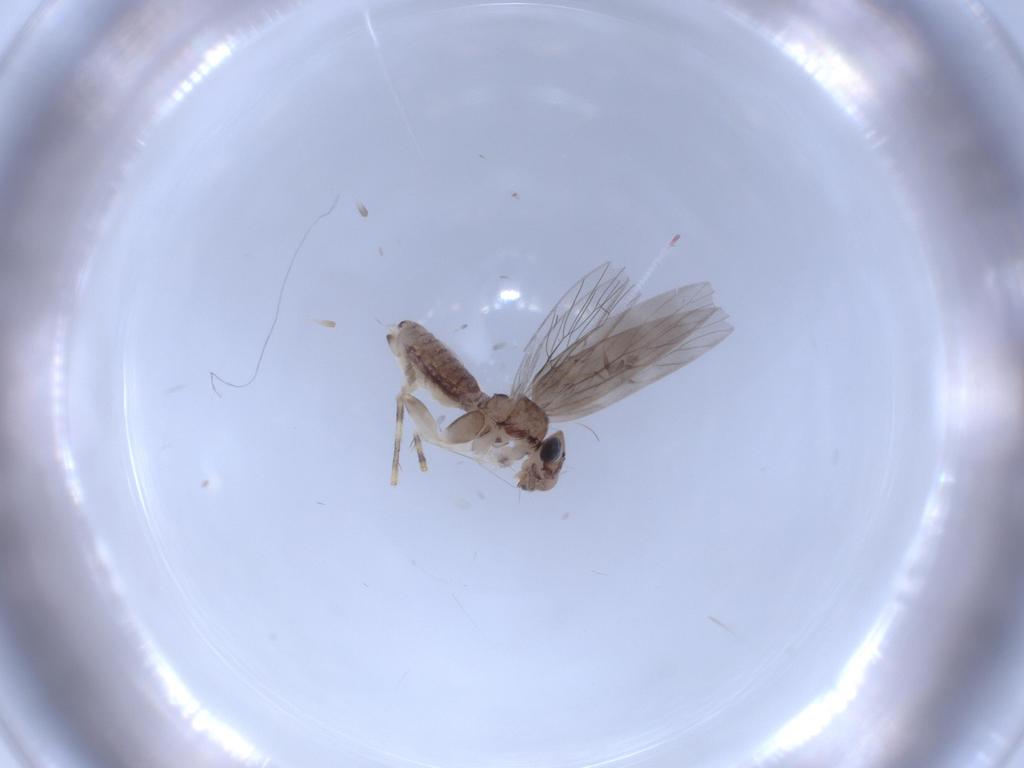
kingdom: Animalia
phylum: Arthropoda
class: Insecta
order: Psocodea
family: Lepidopsocidae
